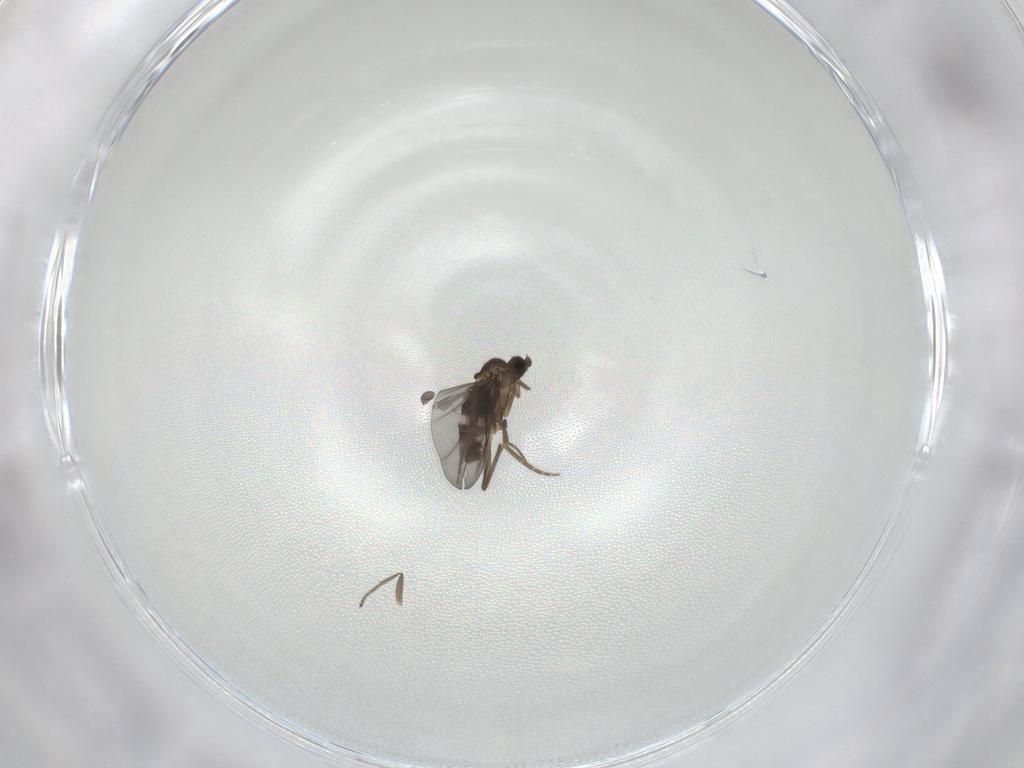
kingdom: Animalia
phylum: Arthropoda
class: Insecta
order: Diptera
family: Phoridae
